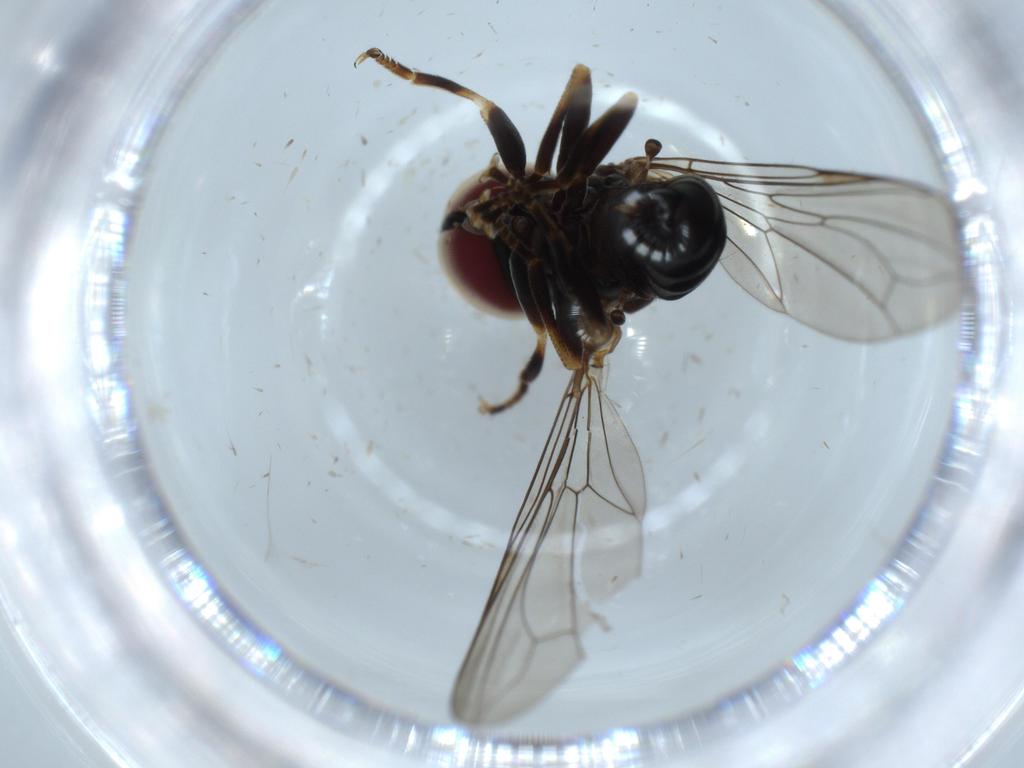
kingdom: Animalia
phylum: Arthropoda
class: Insecta
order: Diptera
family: Pipunculidae
